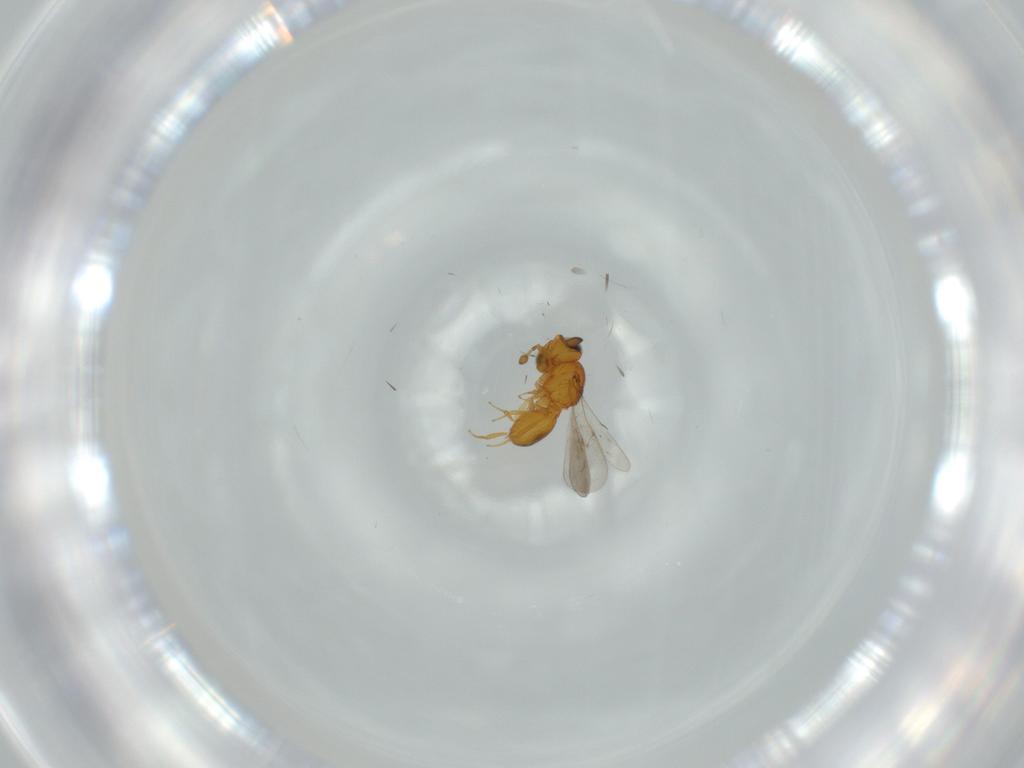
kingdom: Animalia
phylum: Arthropoda
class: Insecta
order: Hymenoptera
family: Scelionidae
